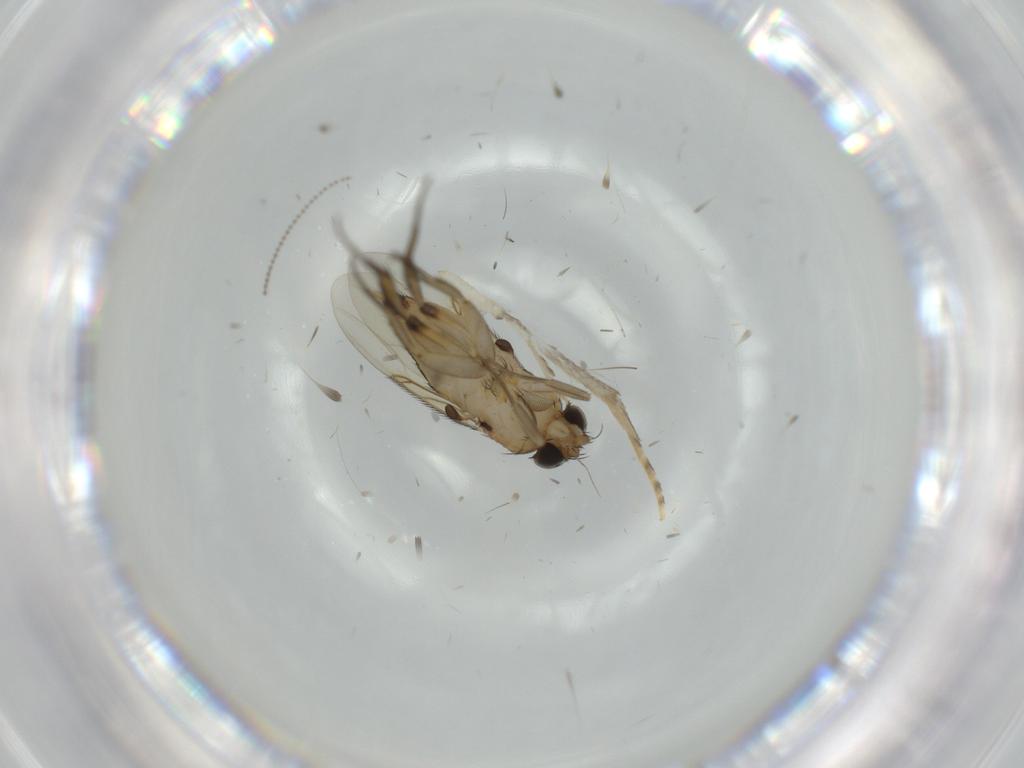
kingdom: Animalia
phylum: Arthropoda
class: Insecta
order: Diptera
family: Phoridae
